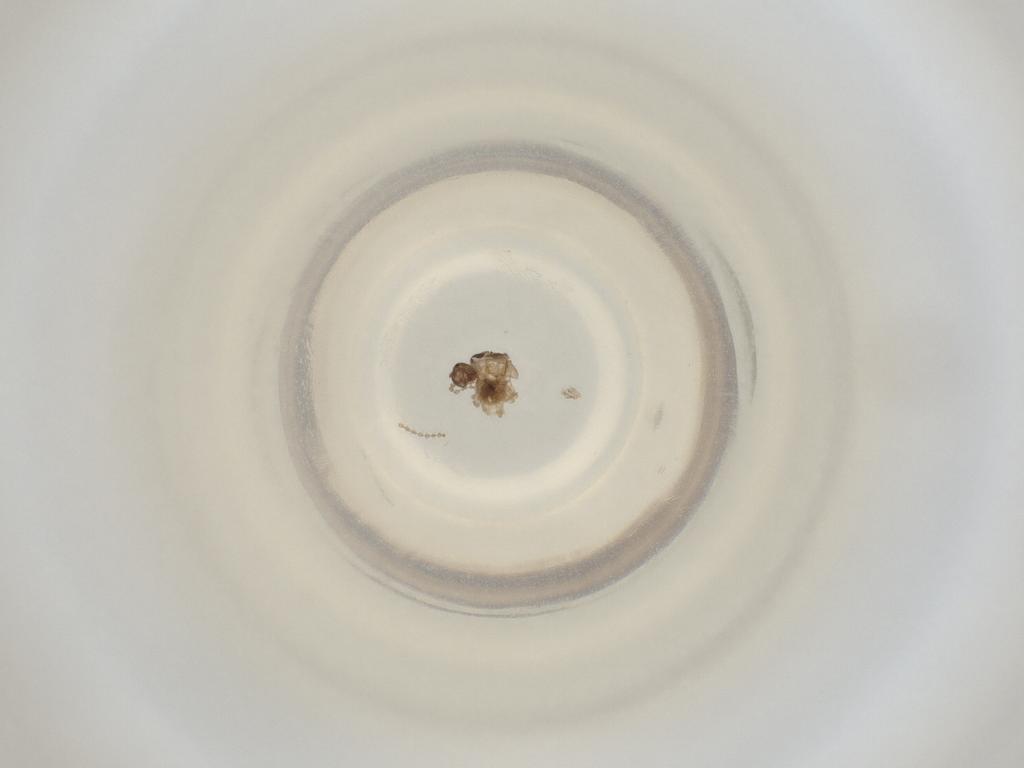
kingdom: Animalia
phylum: Arthropoda
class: Insecta
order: Diptera
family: Cecidomyiidae
